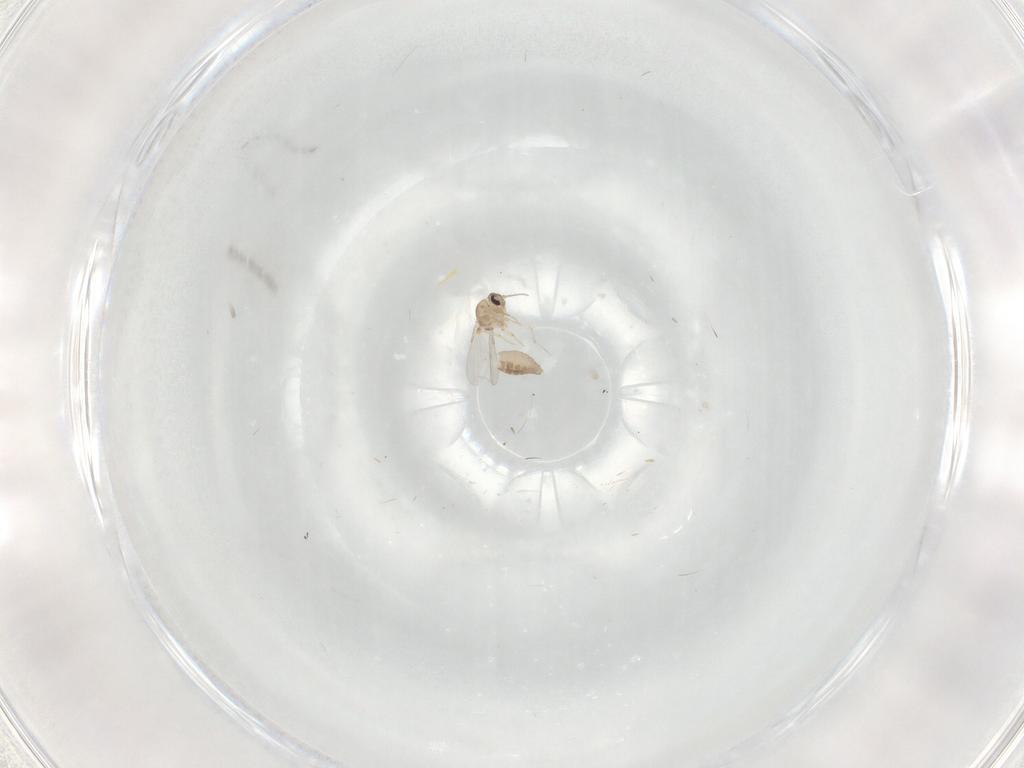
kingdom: Animalia
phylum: Arthropoda
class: Insecta
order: Diptera
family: Ceratopogonidae
